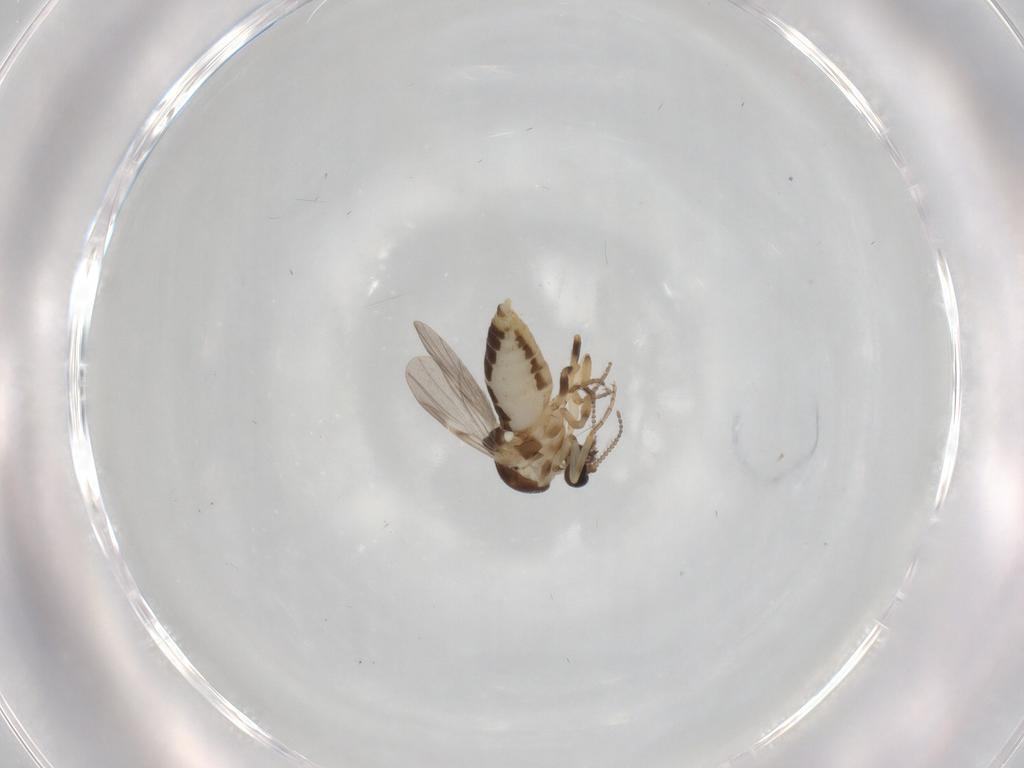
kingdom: Animalia
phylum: Arthropoda
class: Insecta
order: Diptera
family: Ceratopogonidae
